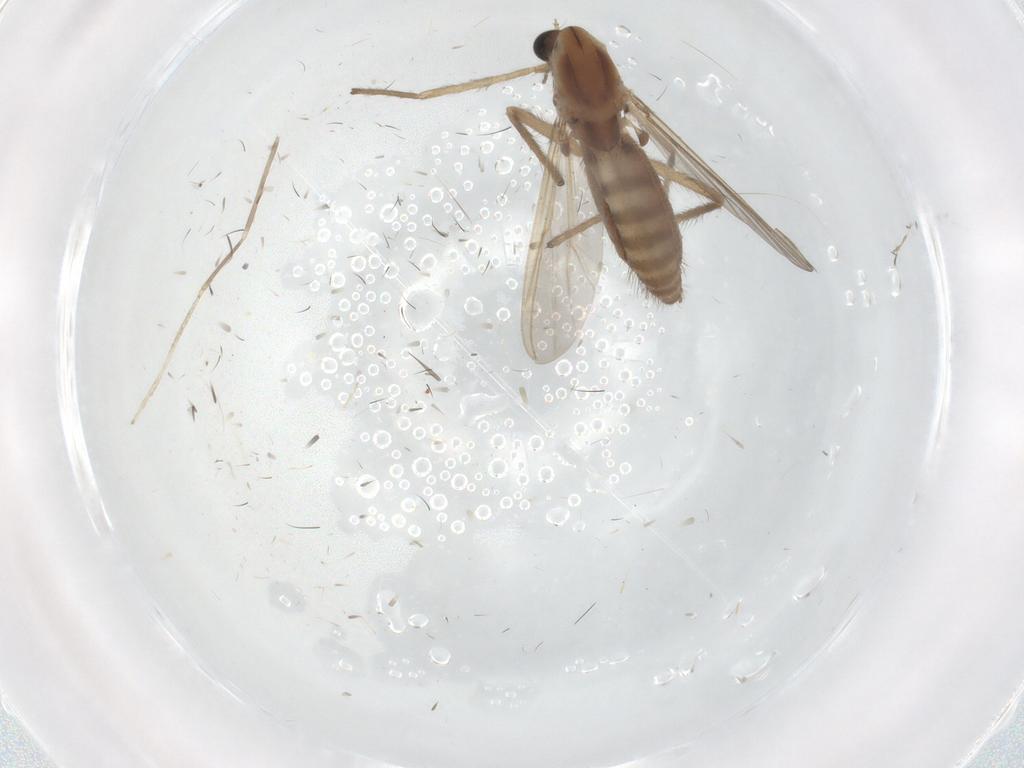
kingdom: Animalia
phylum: Arthropoda
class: Insecta
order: Diptera
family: Chironomidae
